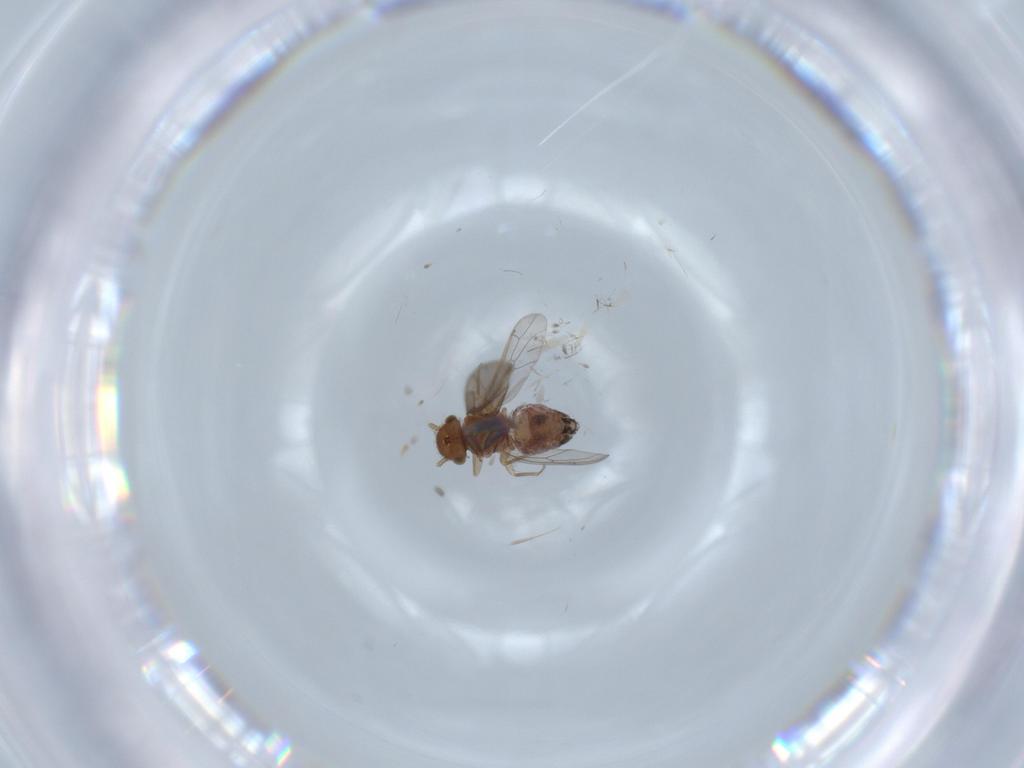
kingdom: Animalia
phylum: Arthropoda
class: Insecta
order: Psocodea
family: Ectopsocidae
